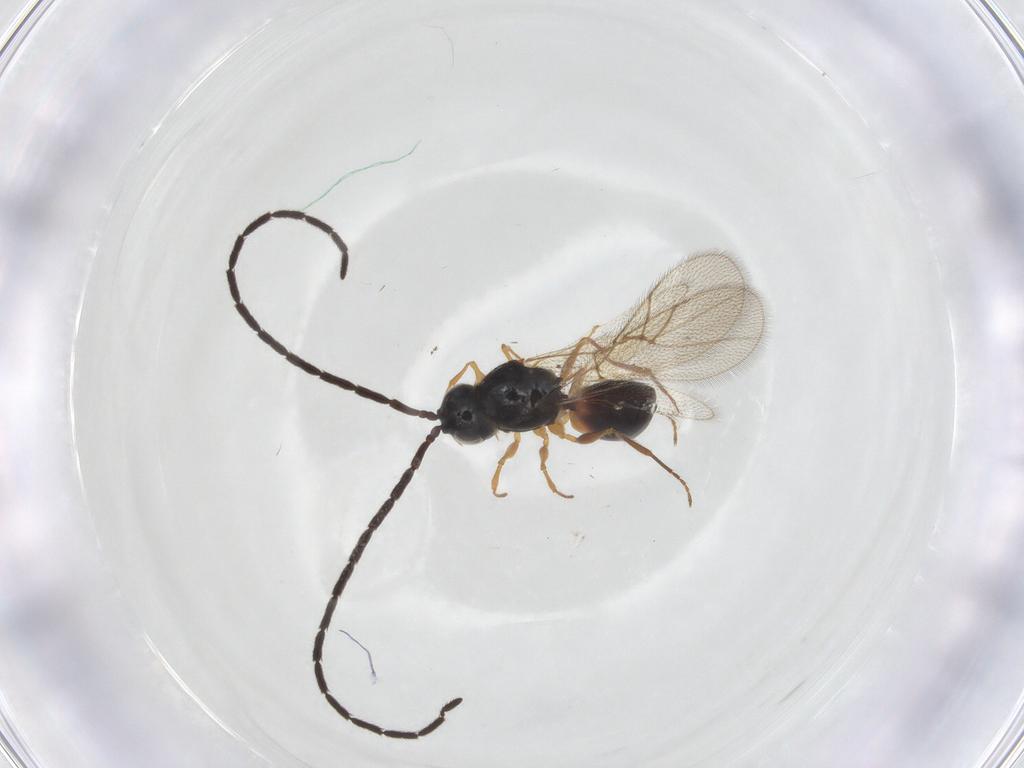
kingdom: Animalia
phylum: Arthropoda
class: Insecta
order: Hymenoptera
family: Figitidae
